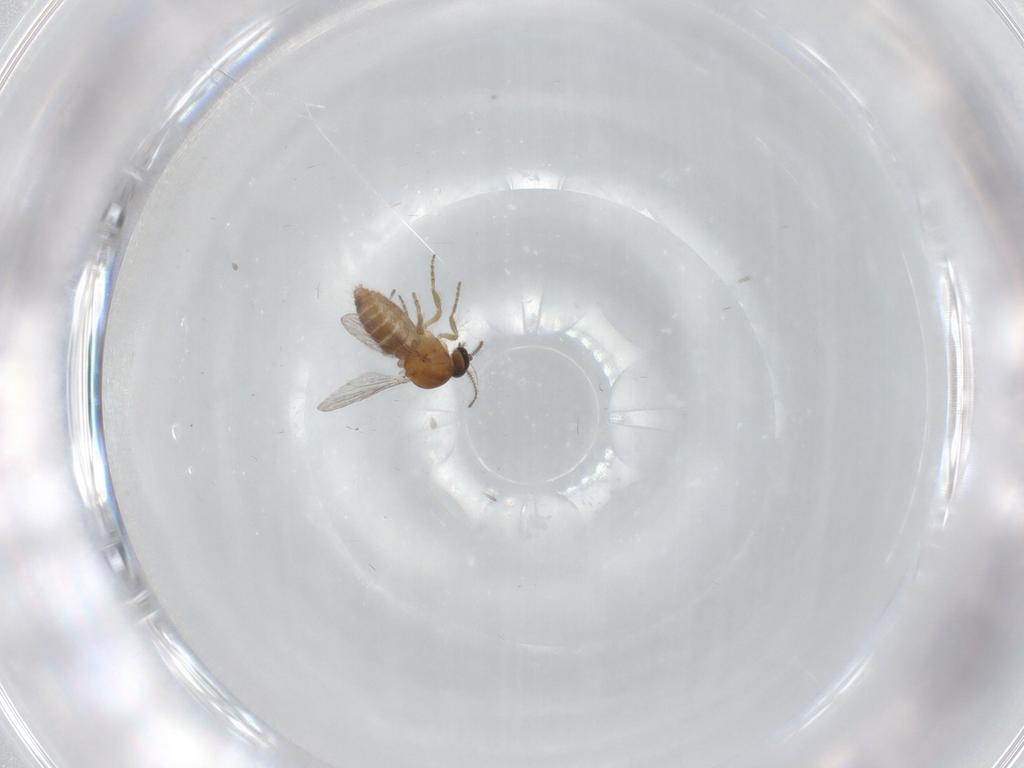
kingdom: Animalia
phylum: Arthropoda
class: Insecta
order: Diptera
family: Ceratopogonidae
